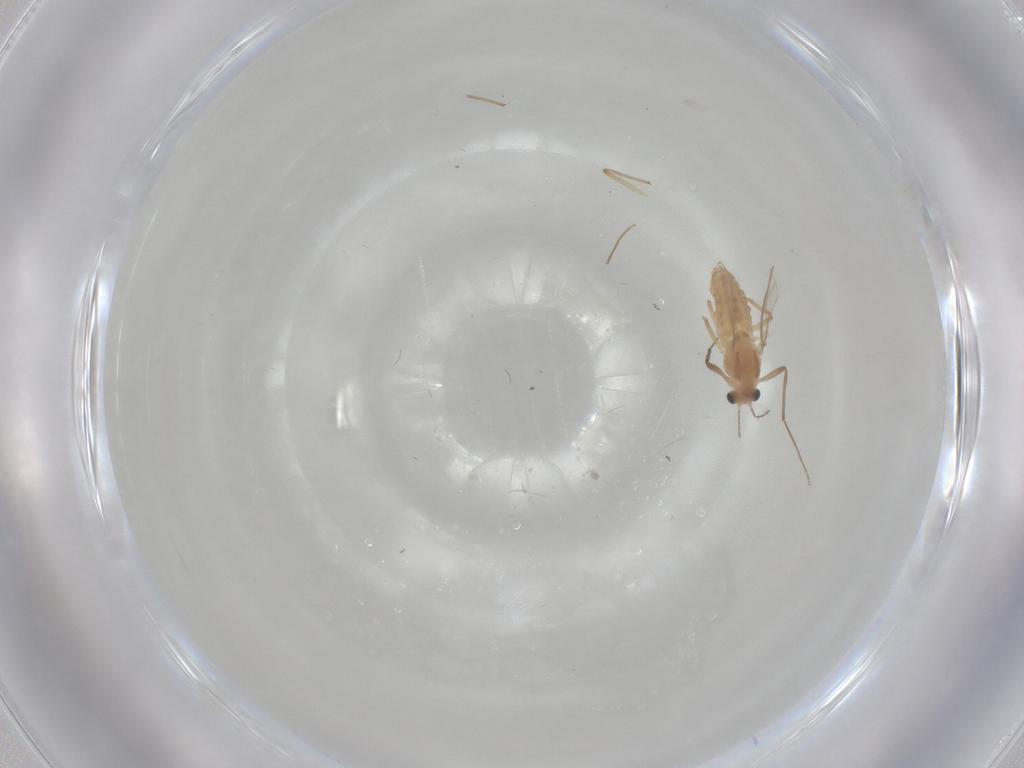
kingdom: Animalia
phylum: Arthropoda
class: Insecta
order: Diptera
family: Chironomidae
